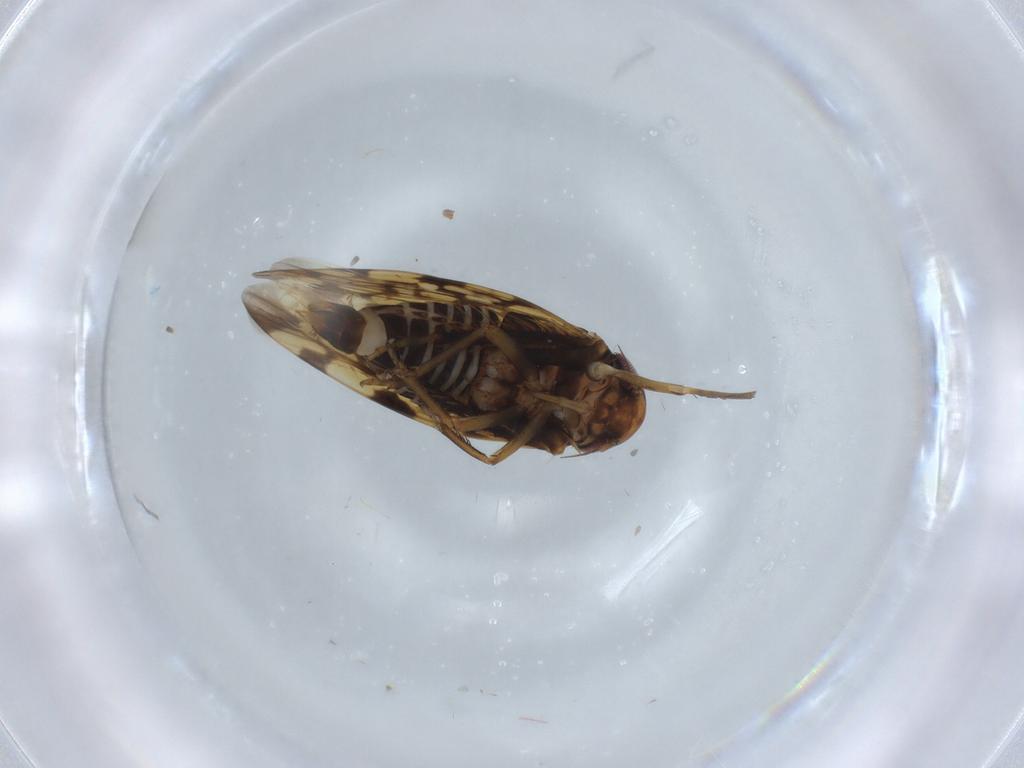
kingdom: Animalia
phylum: Arthropoda
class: Insecta
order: Hemiptera
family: Cicadellidae
